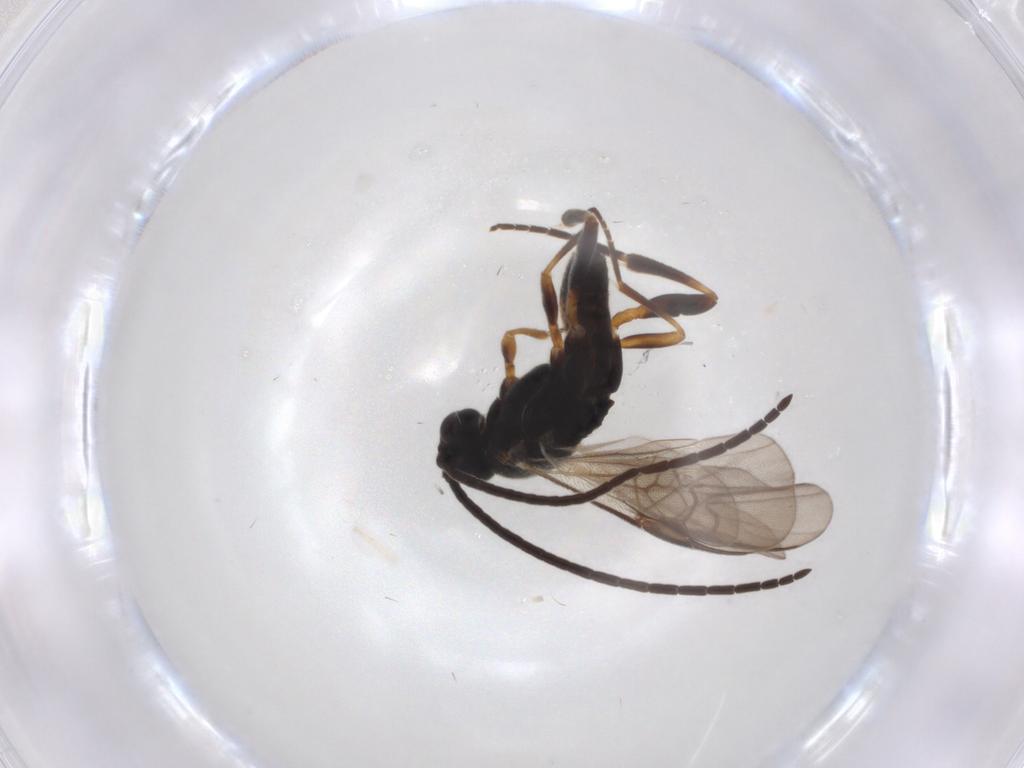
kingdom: Animalia
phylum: Arthropoda
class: Insecta
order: Hymenoptera
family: Braconidae
